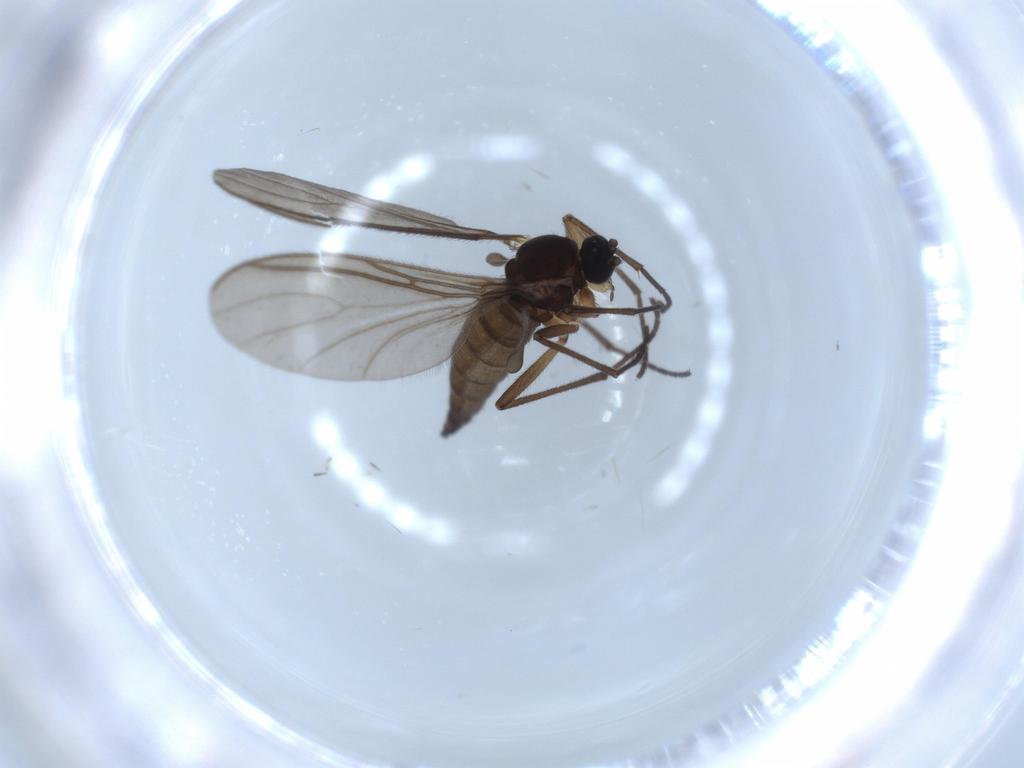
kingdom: Animalia
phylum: Arthropoda
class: Insecta
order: Diptera
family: Sciaridae
